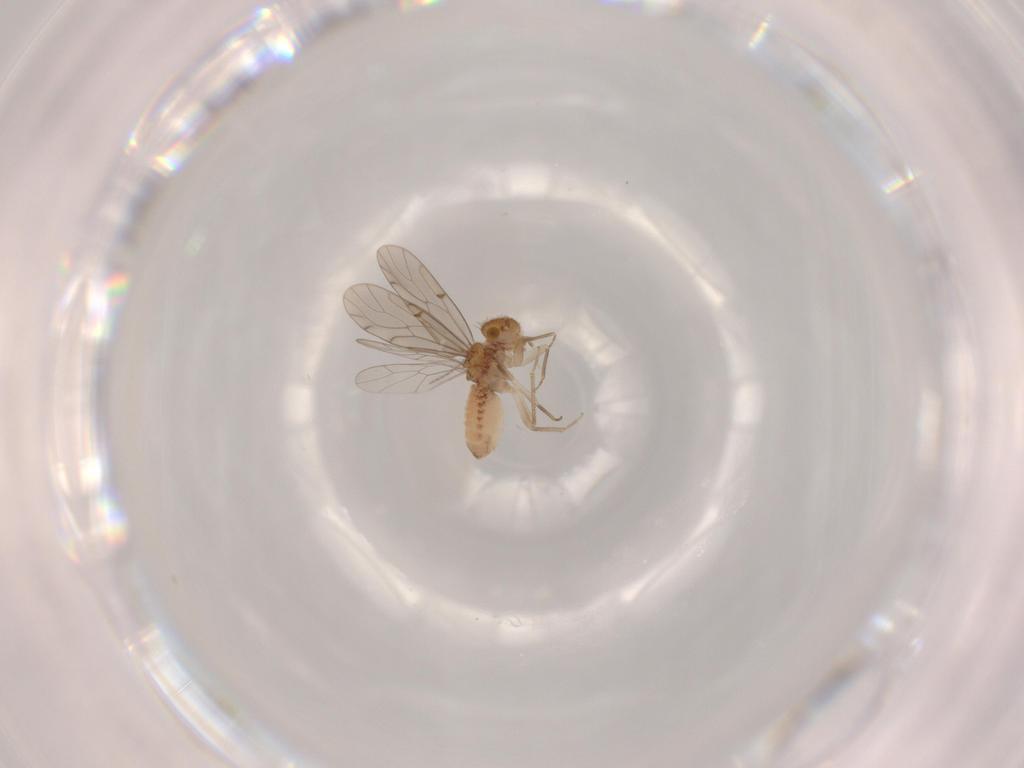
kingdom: Animalia
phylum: Arthropoda
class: Insecta
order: Psocodea
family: Ectopsocidae
